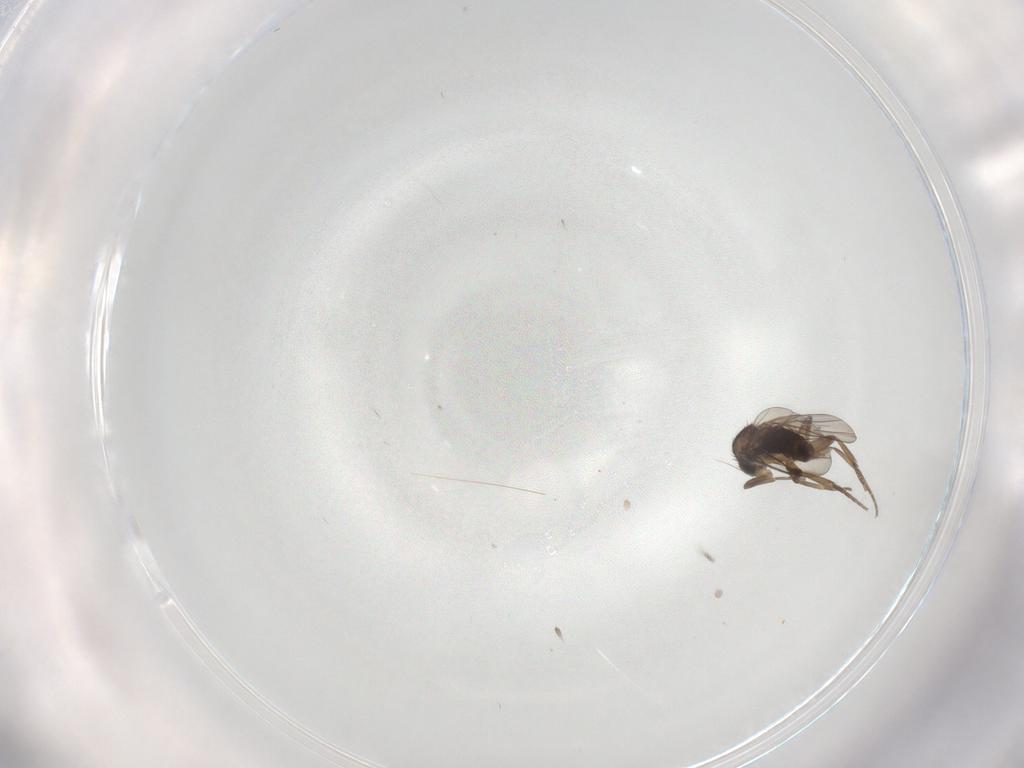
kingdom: Animalia
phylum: Arthropoda
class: Insecta
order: Diptera
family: Phoridae
